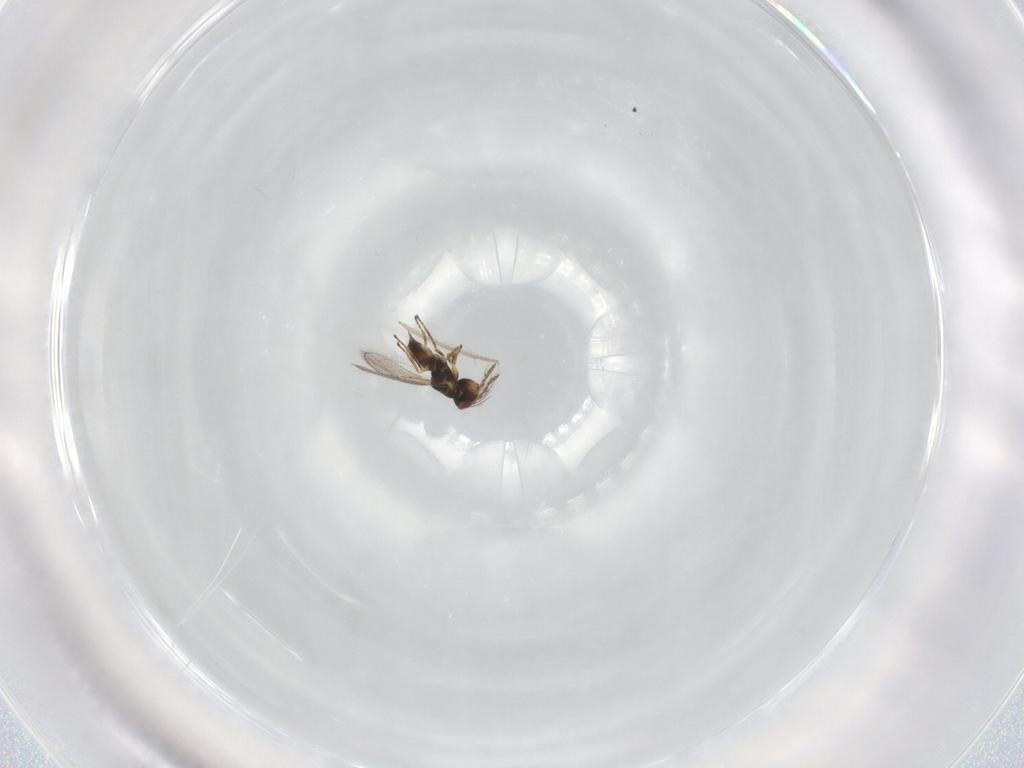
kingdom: Animalia
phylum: Arthropoda
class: Insecta
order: Hymenoptera
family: Eulophidae
